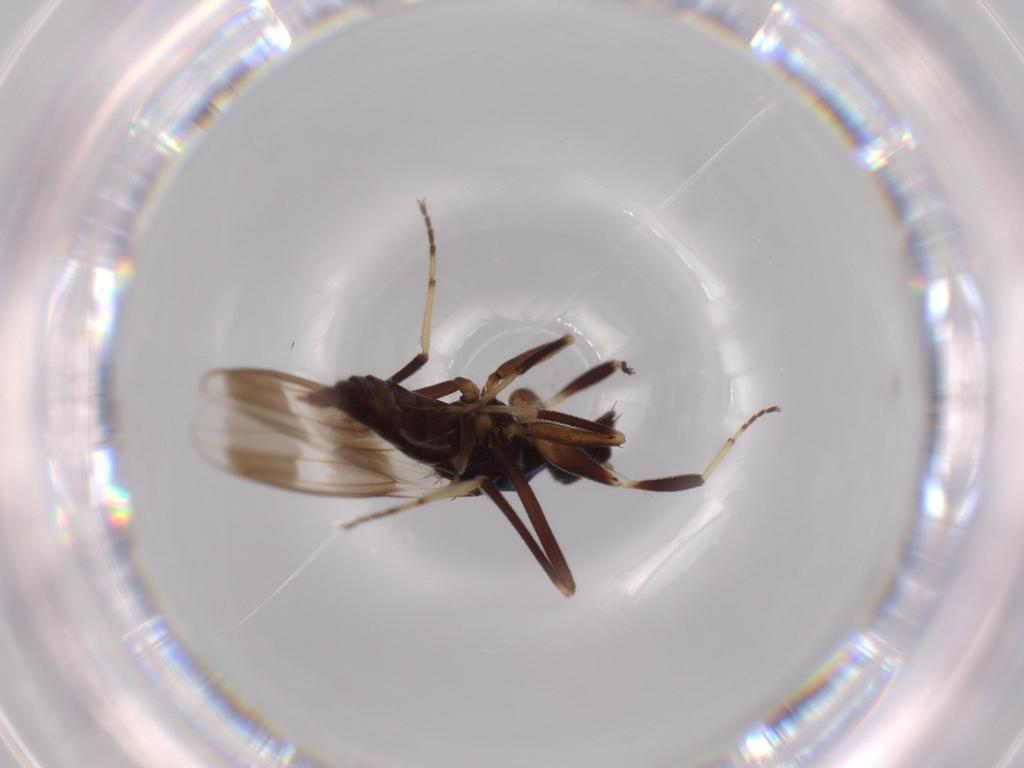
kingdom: Animalia
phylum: Arthropoda
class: Insecta
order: Diptera
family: Hybotidae
